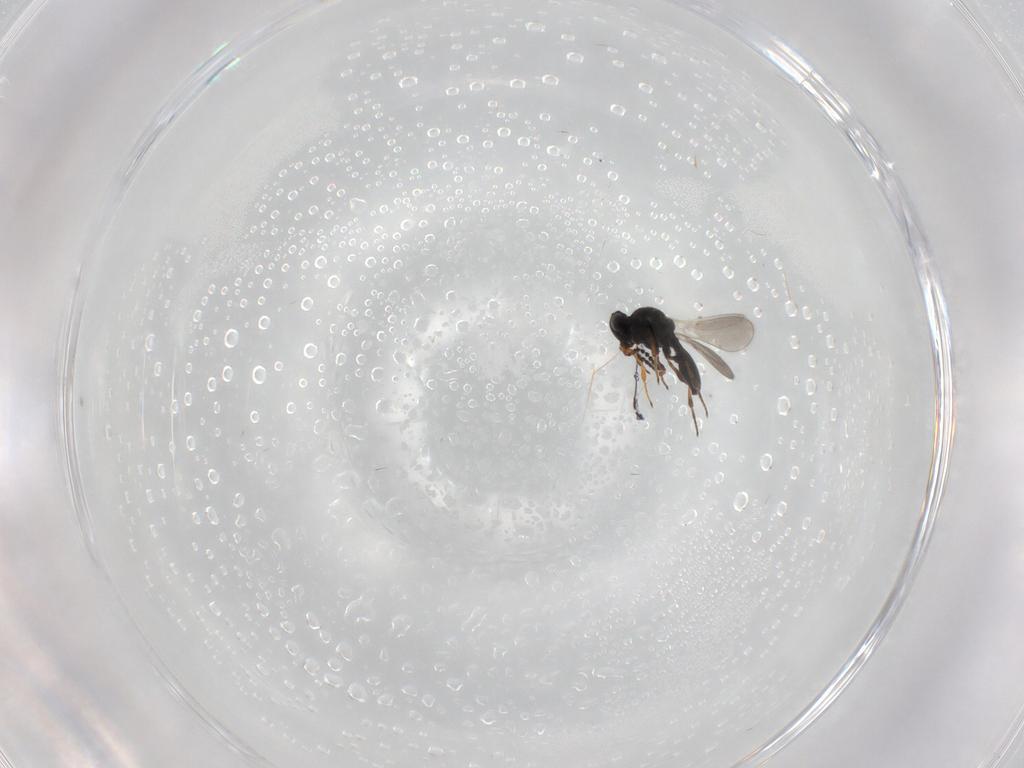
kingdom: Animalia
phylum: Arthropoda
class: Insecta
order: Hymenoptera
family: Platygastridae
